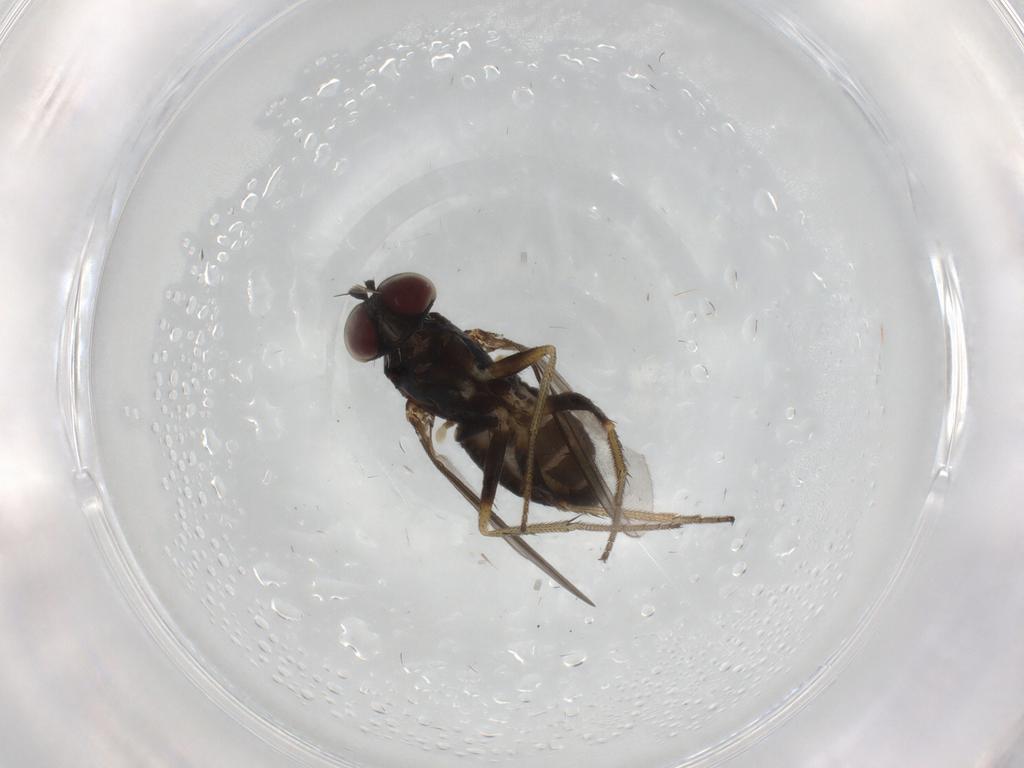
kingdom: Animalia
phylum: Arthropoda
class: Insecta
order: Diptera
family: Dolichopodidae
